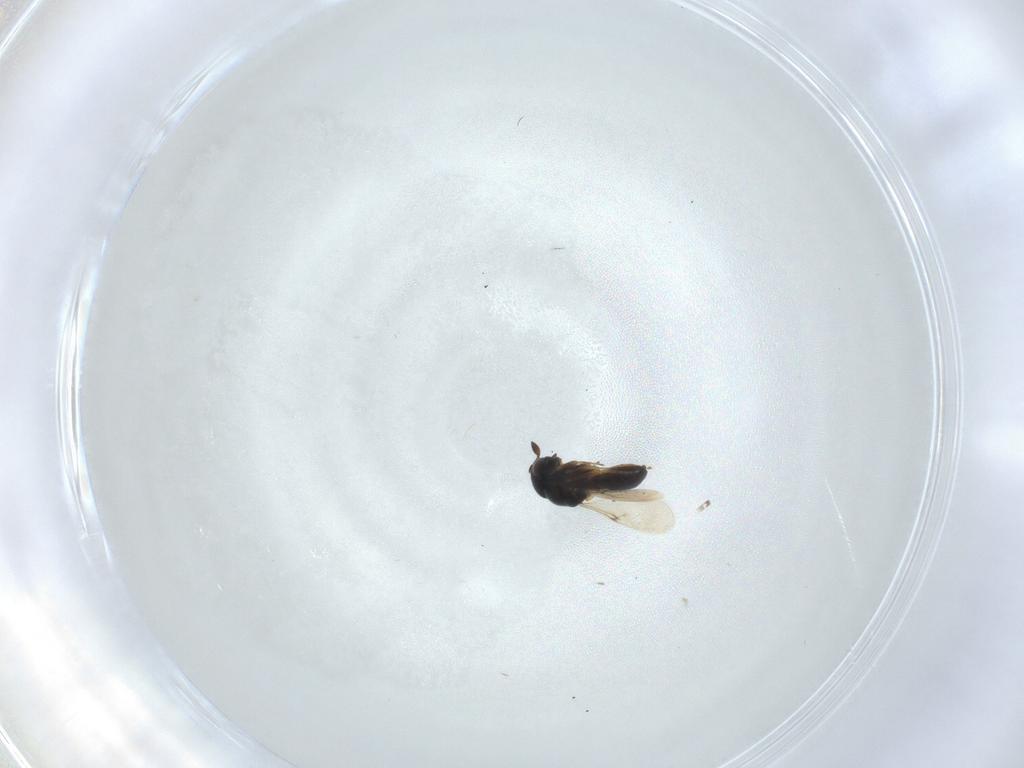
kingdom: Animalia
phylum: Arthropoda
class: Insecta
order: Hymenoptera
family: Scelionidae
